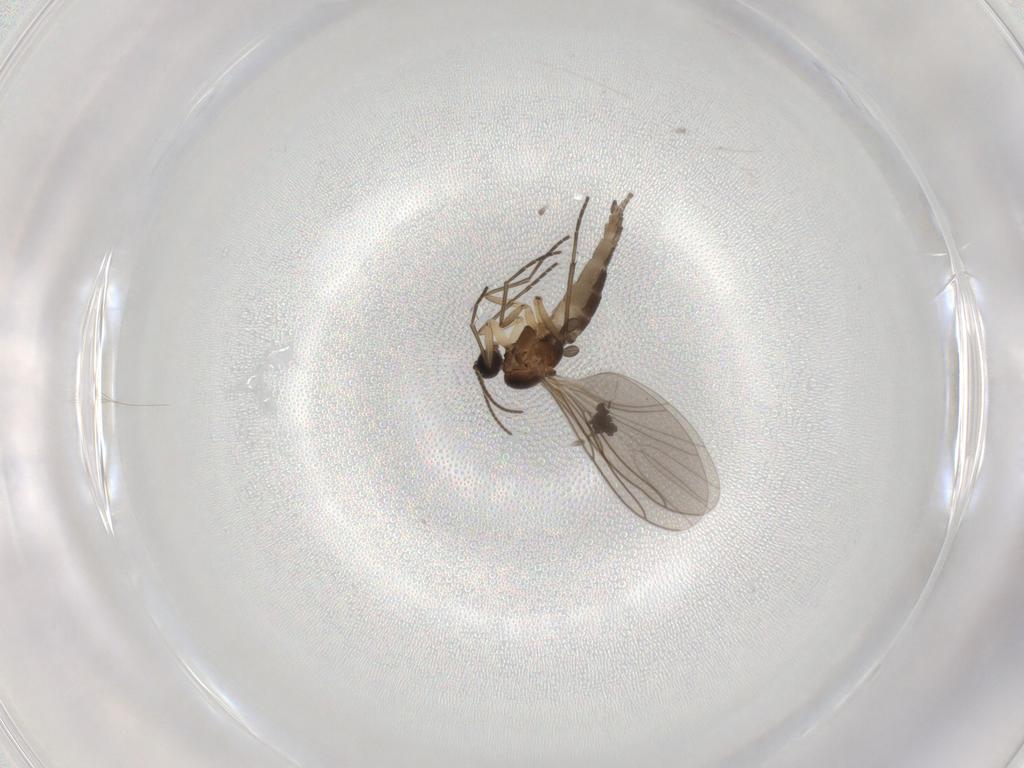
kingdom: Animalia
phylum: Arthropoda
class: Insecta
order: Diptera
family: Sciaridae
